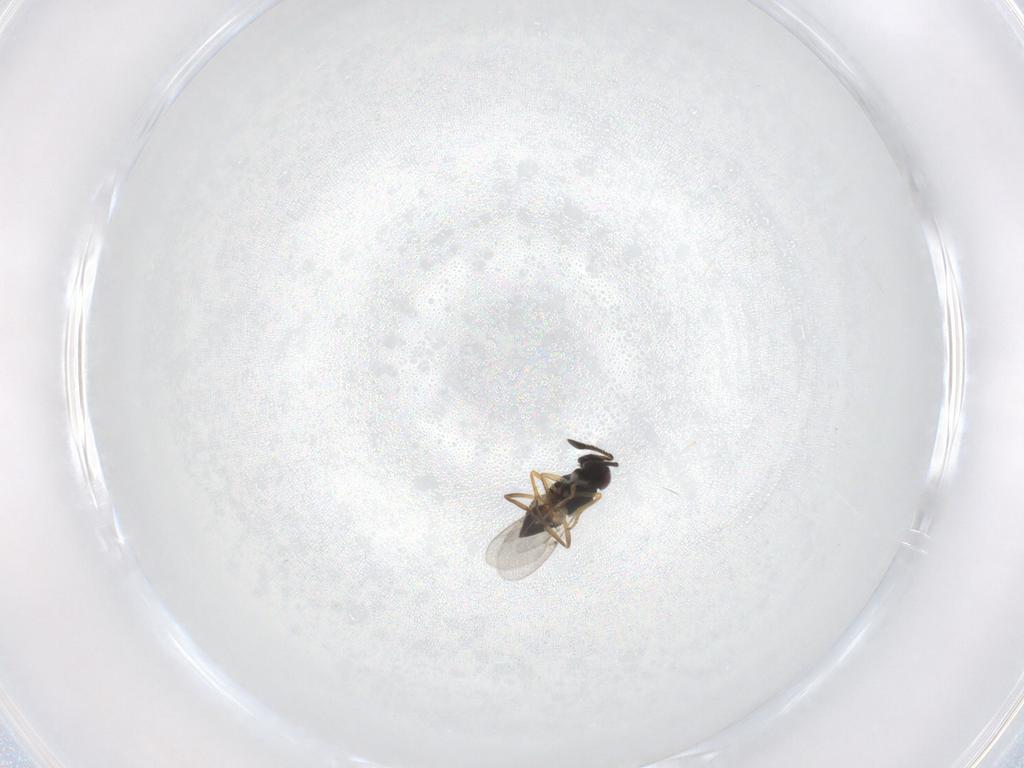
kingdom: Animalia
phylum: Arthropoda
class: Insecta
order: Hymenoptera
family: Mymaridae
